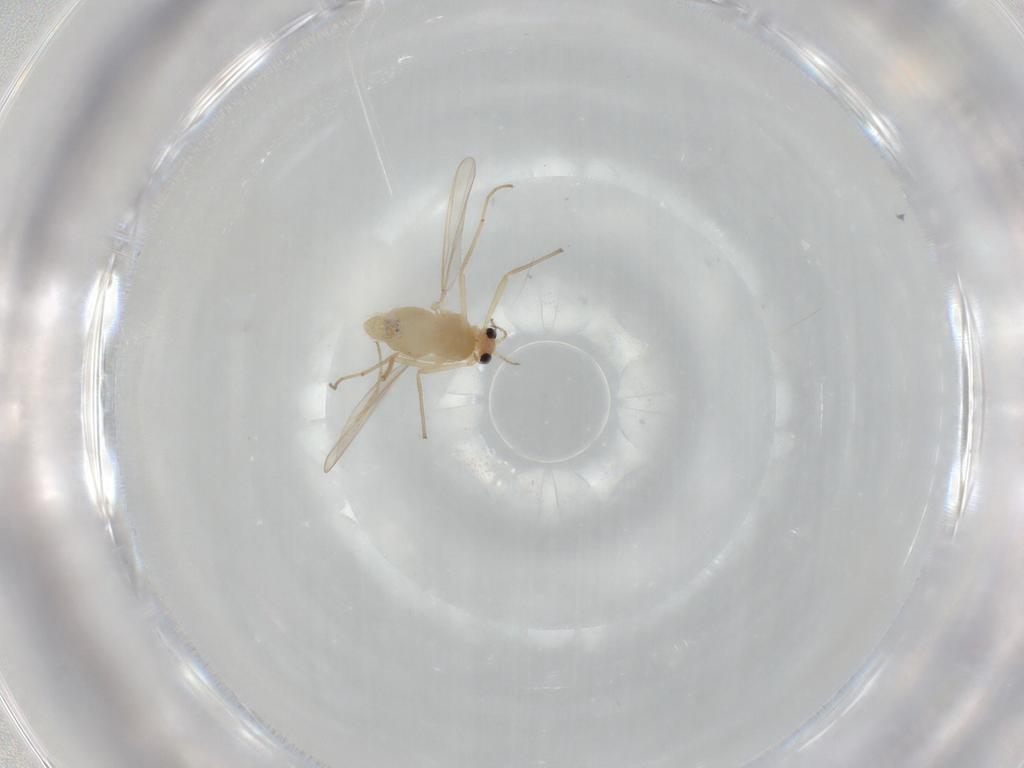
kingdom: Animalia
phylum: Arthropoda
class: Insecta
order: Diptera
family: Chironomidae
